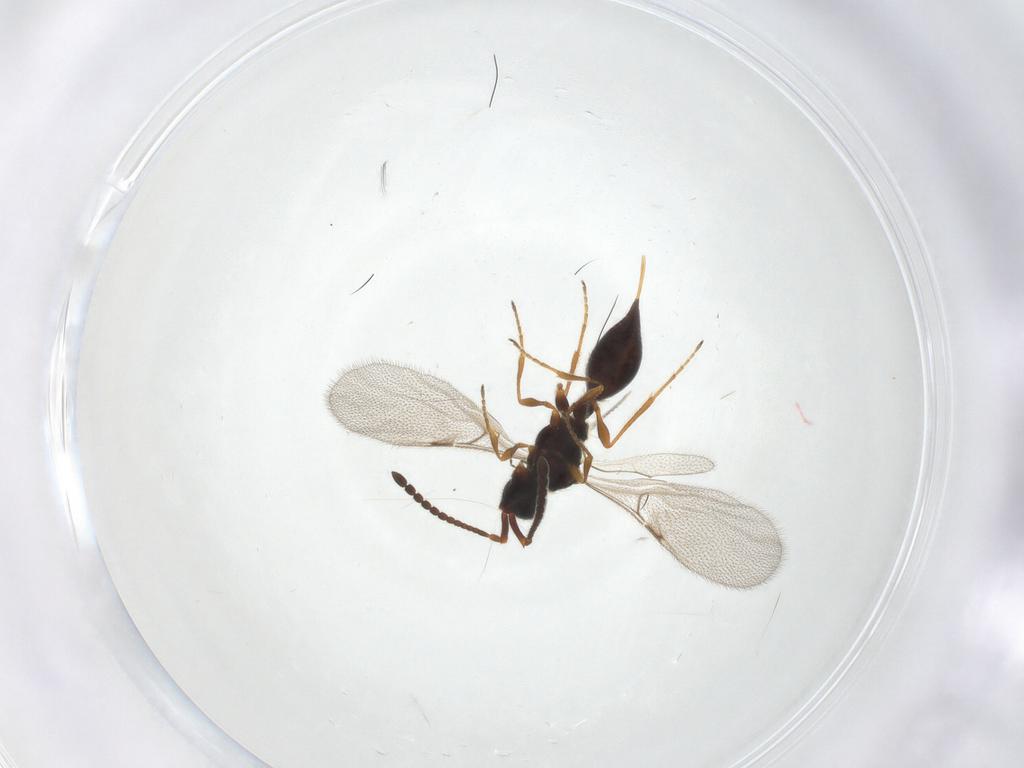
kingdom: Animalia
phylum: Arthropoda
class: Insecta
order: Hymenoptera
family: Diapriidae
